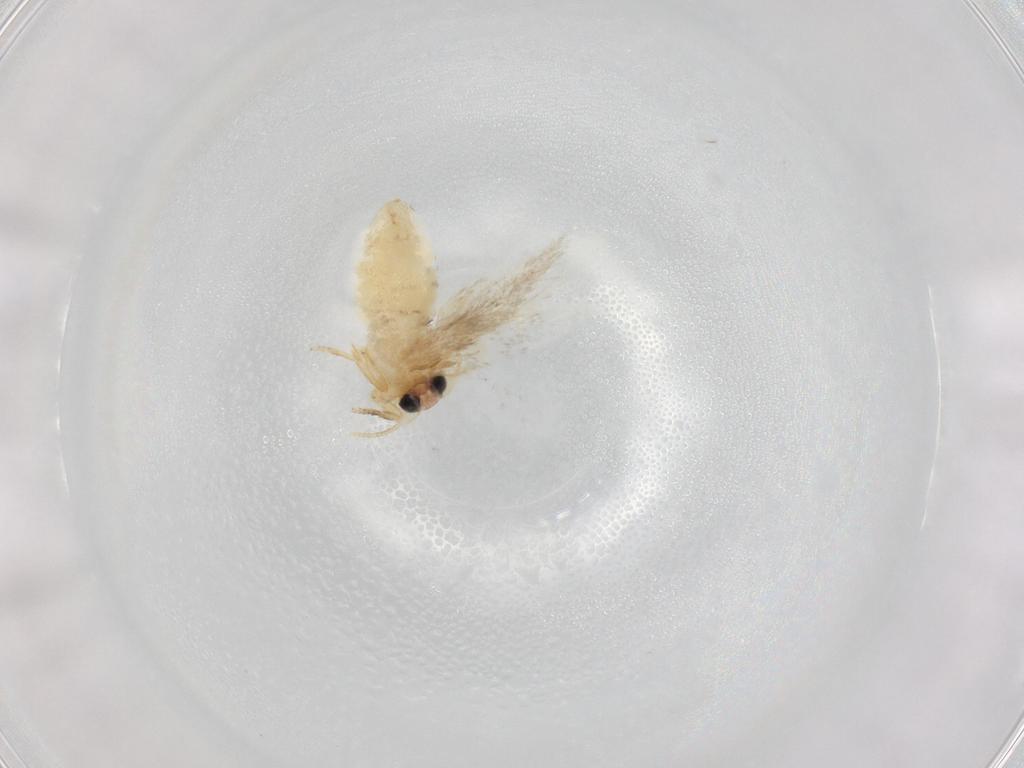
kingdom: Animalia
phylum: Arthropoda
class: Insecta
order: Lepidoptera
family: Nepticulidae
